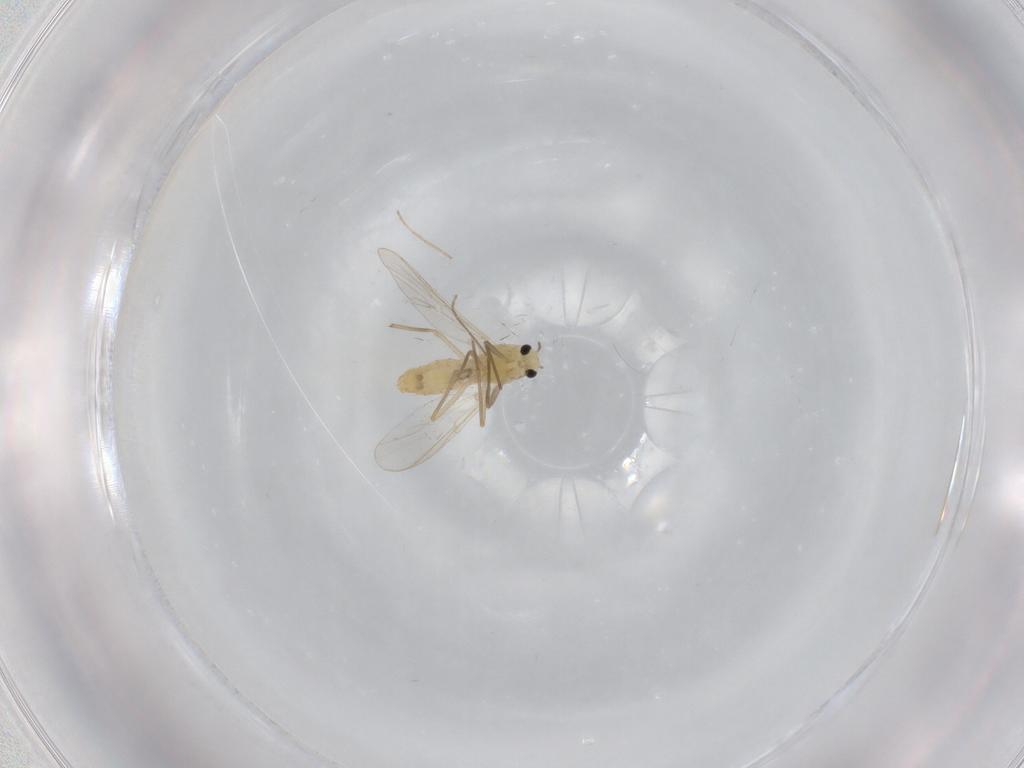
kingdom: Animalia
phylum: Arthropoda
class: Insecta
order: Diptera
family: Chironomidae
